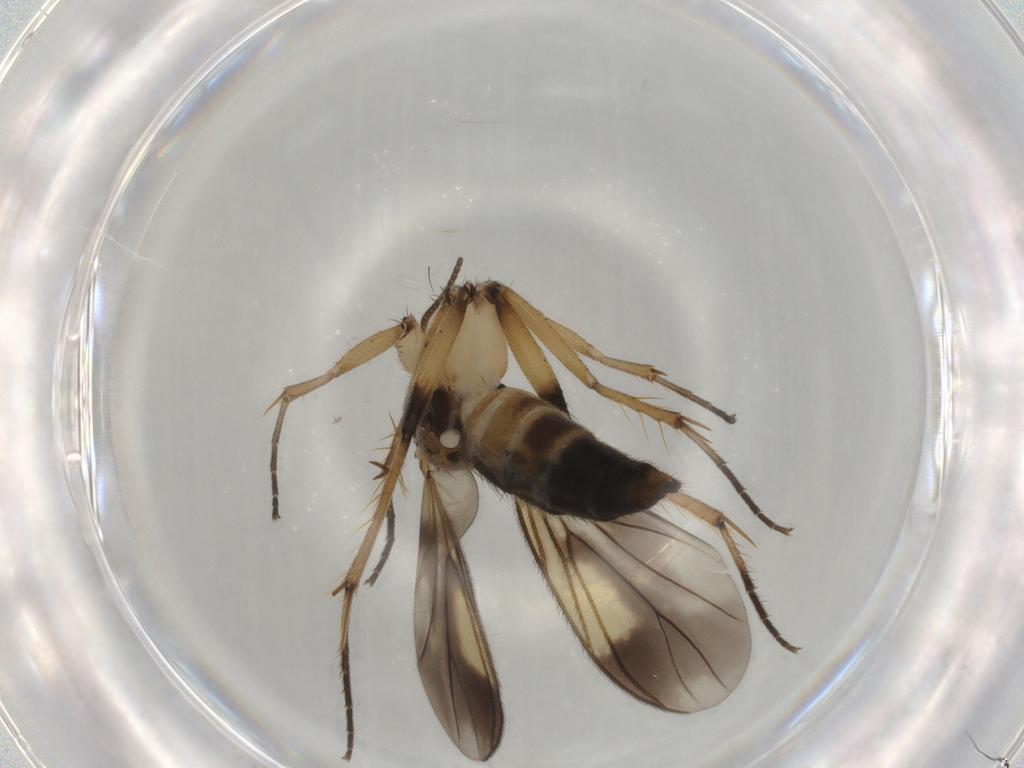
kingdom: Animalia
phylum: Arthropoda
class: Insecta
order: Diptera
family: Mycetophilidae
